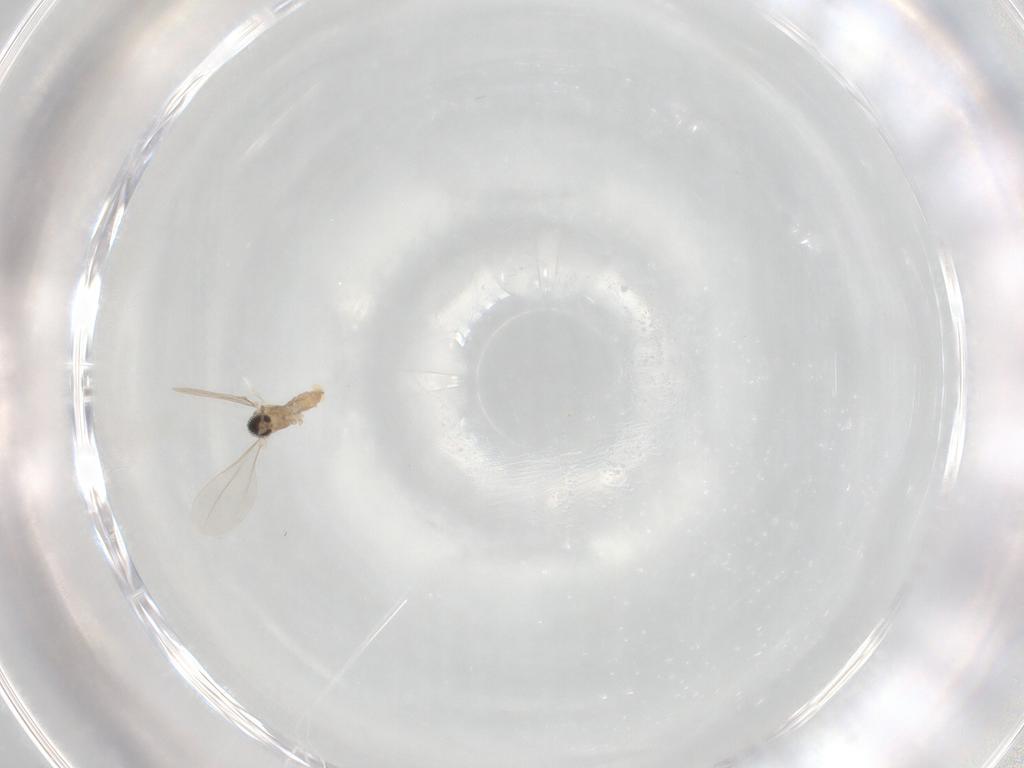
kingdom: Animalia
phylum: Arthropoda
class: Insecta
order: Diptera
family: Cecidomyiidae
